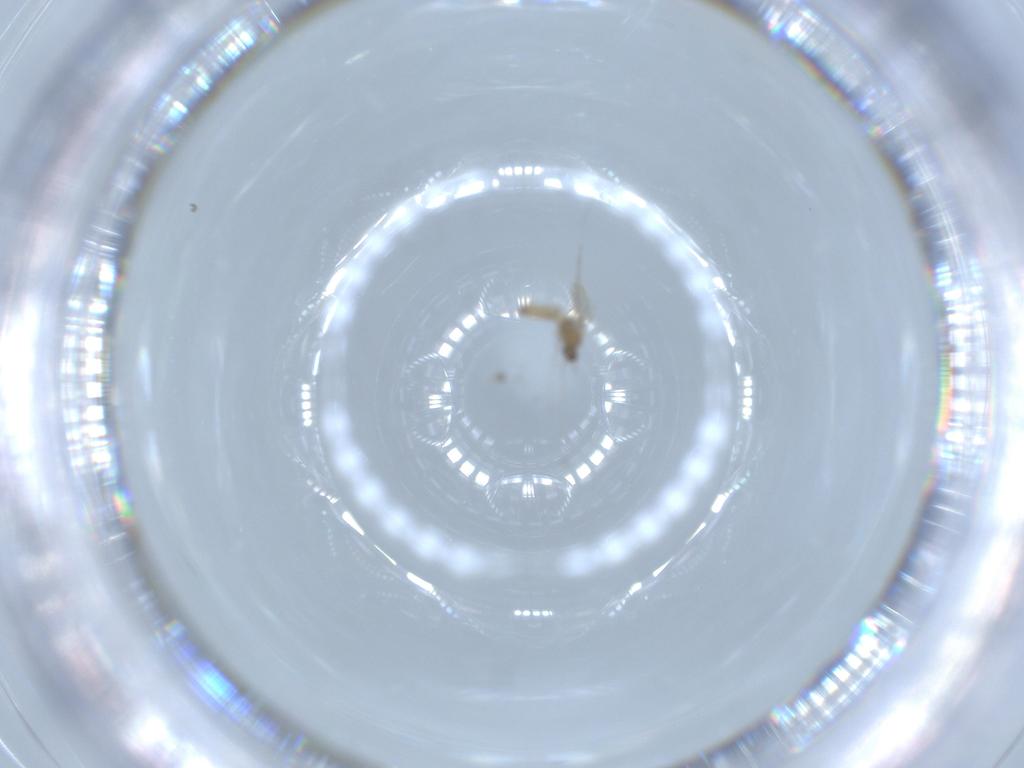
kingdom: Animalia
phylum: Arthropoda
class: Insecta
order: Diptera
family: Cecidomyiidae
